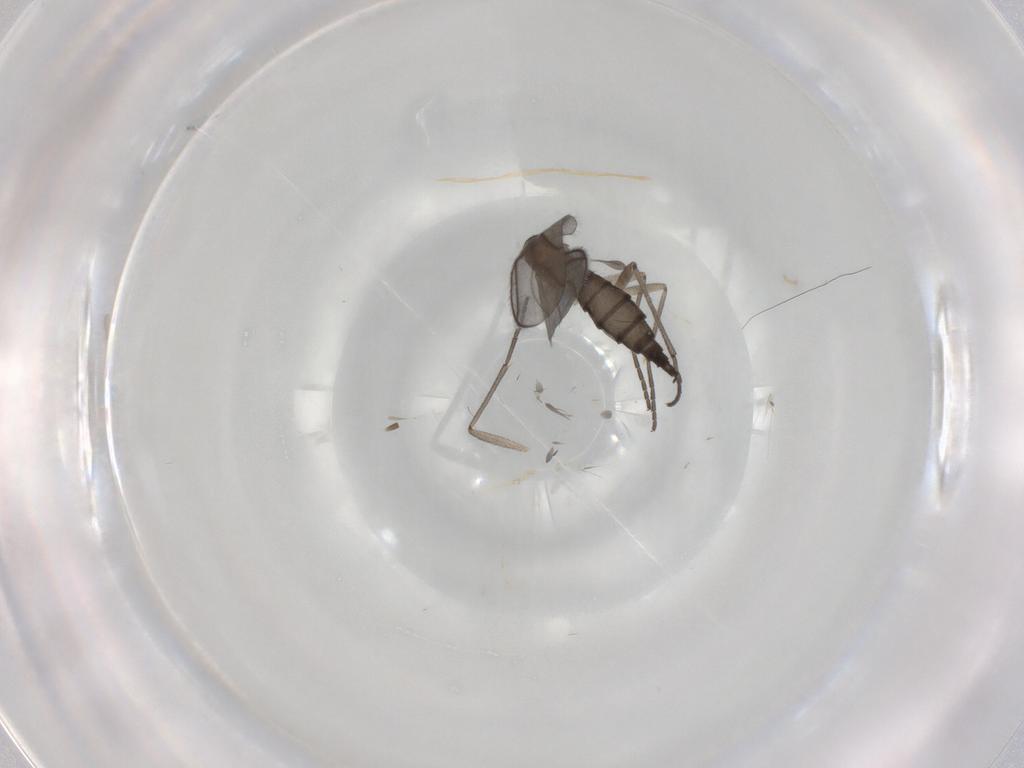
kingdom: Animalia
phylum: Arthropoda
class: Insecta
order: Diptera
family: Sciaridae
